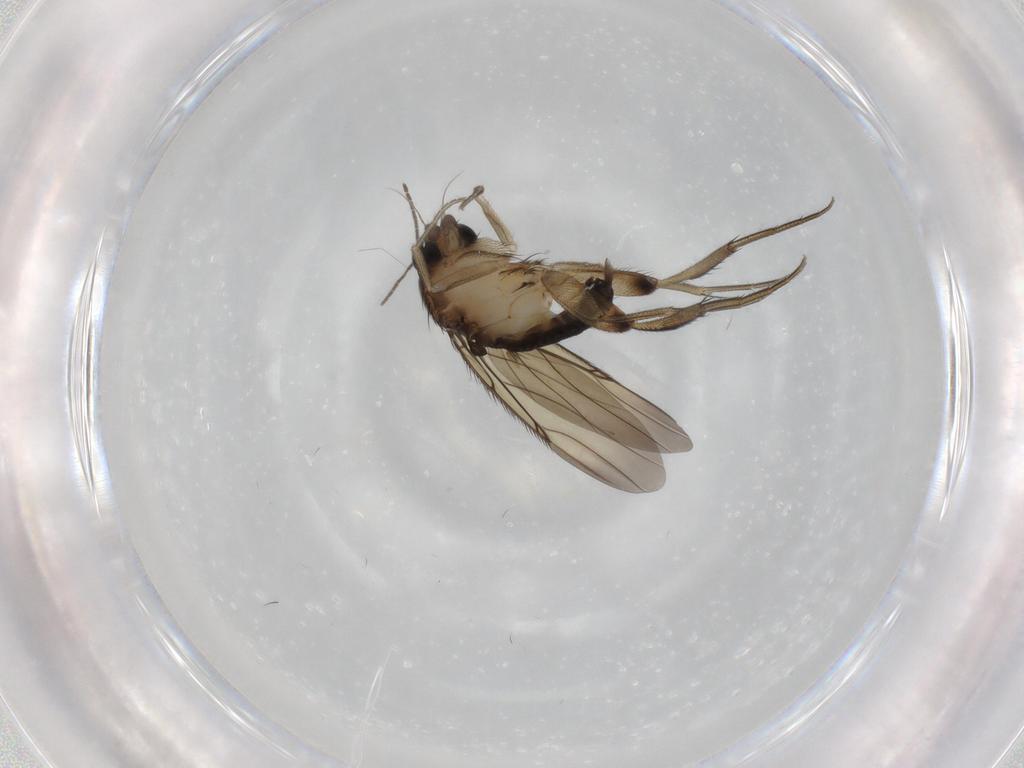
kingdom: Animalia
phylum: Arthropoda
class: Insecta
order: Diptera
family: Sciaridae
